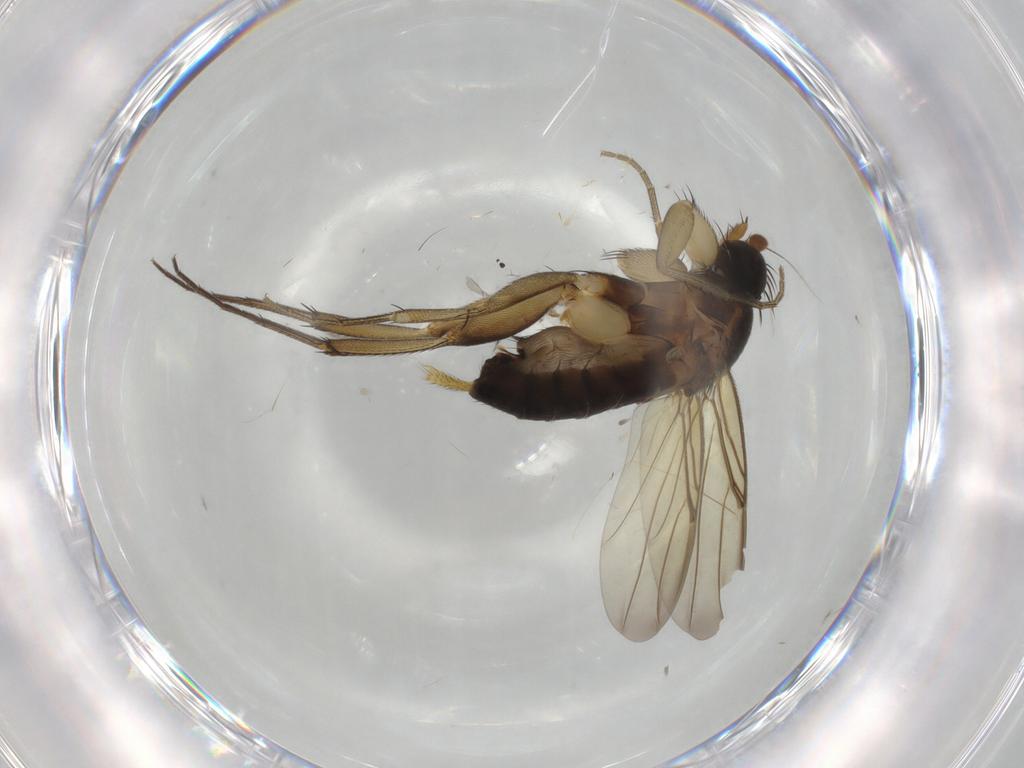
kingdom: Animalia
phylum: Arthropoda
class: Insecta
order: Diptera
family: Phoridae
